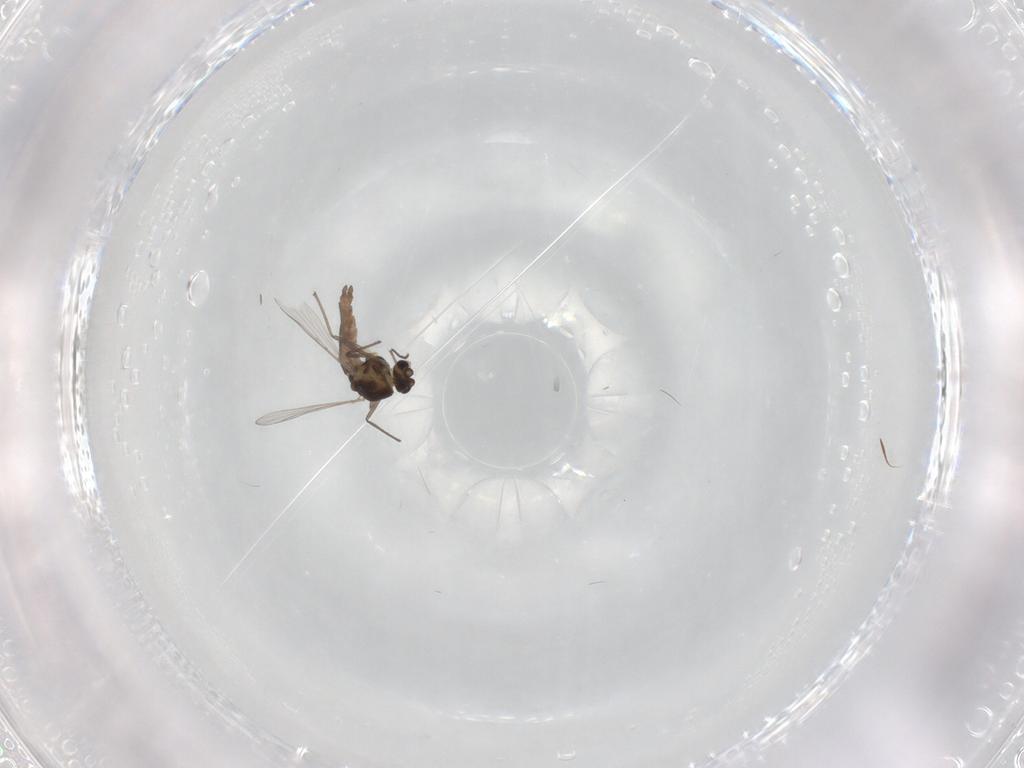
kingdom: Animalia
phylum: Arthropoda
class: Insecta
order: Diptera
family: Chironomidae
